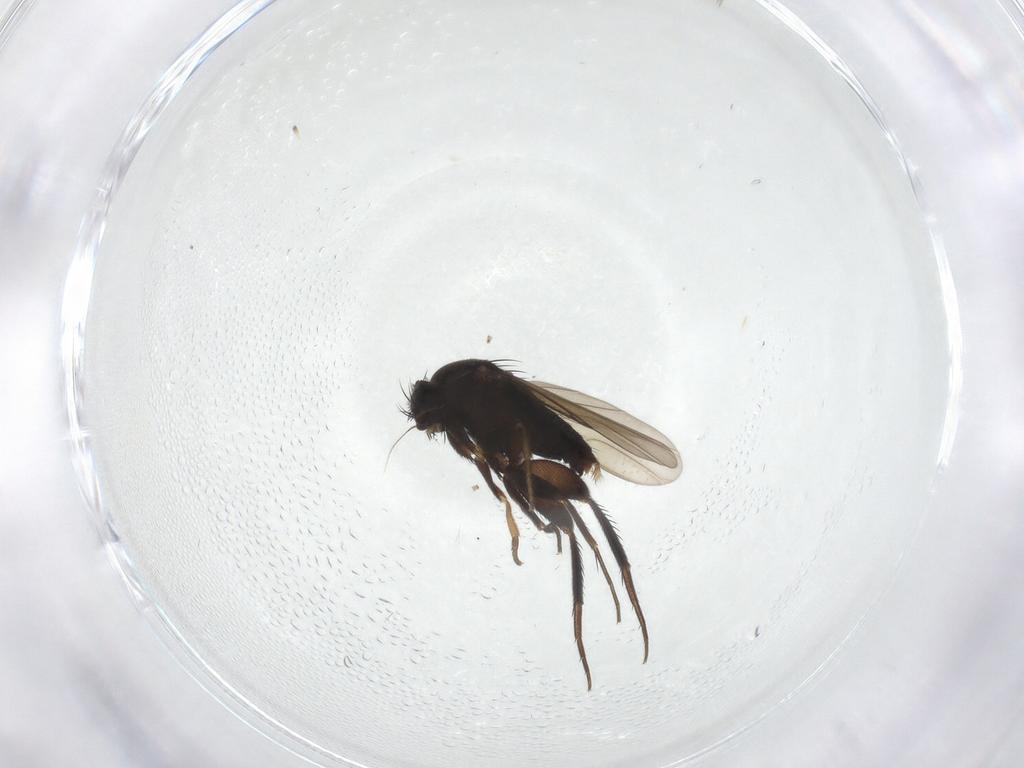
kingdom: Animalia
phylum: Arthropoda
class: Insecta
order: Diptera
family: Phoridae
